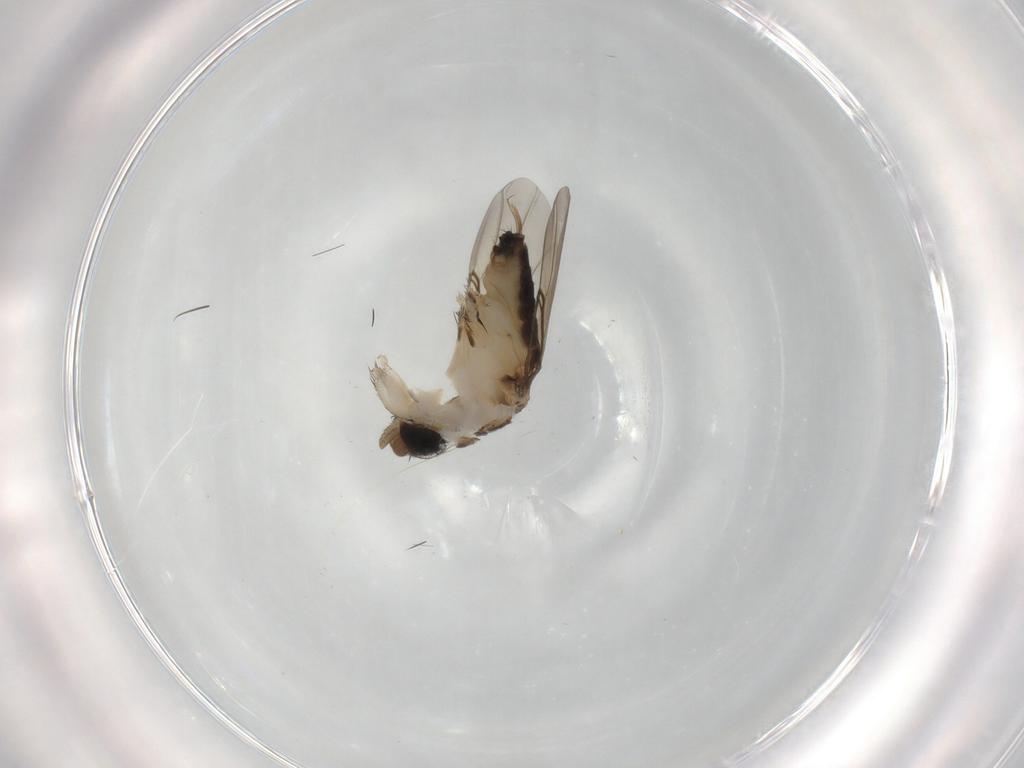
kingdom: Animalia
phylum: Arthropoda
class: Insecta
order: Diptera
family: Phoridae
